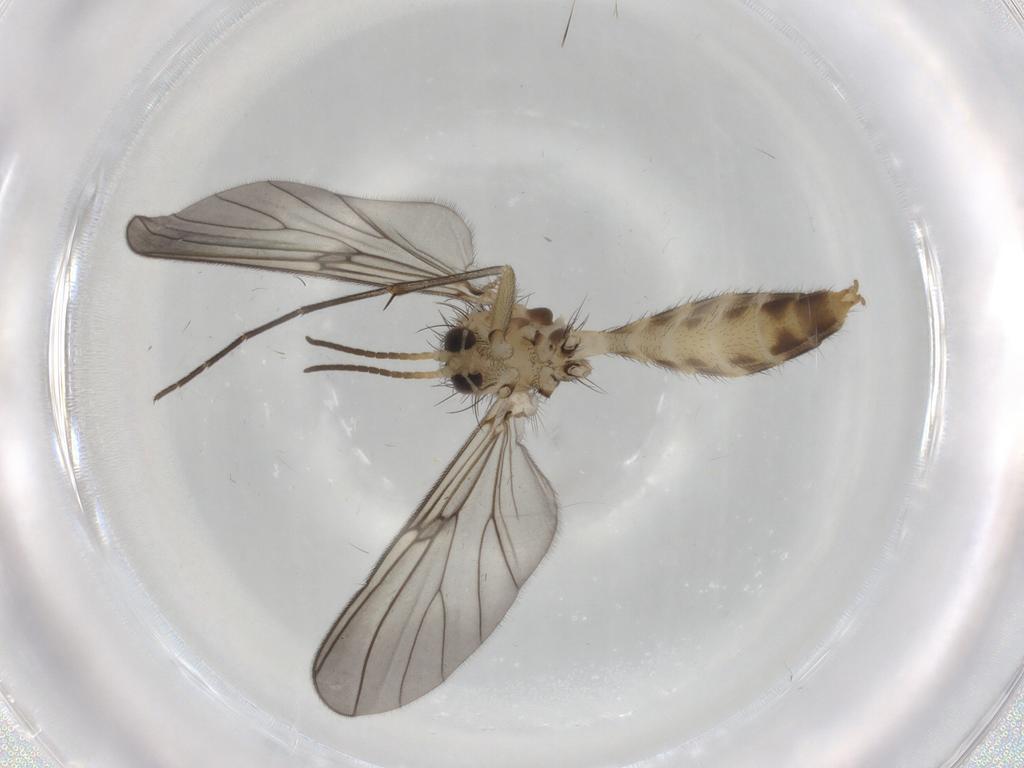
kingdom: Animalia
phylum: Arthropoda
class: Insecta
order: Diptera
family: Mycetophilidae
